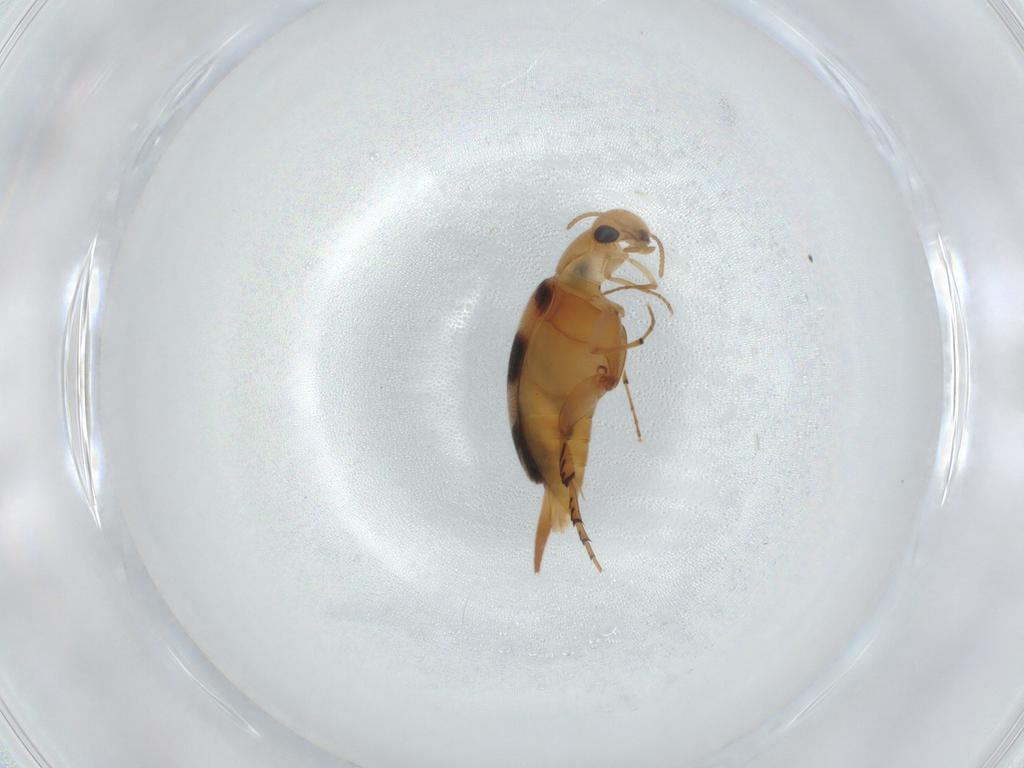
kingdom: Animalia
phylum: Arthropoda
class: Insecta
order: Coleoptera
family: Mordellidae
